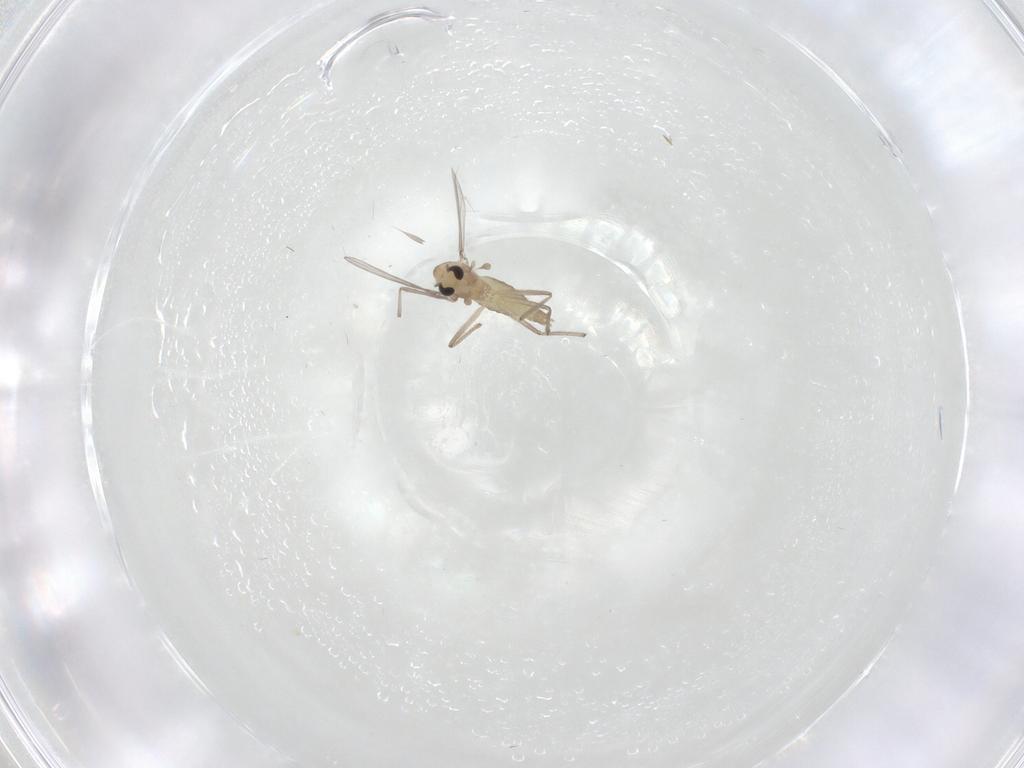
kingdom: Animalia
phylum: Arthropoda
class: Insecta
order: Diptera
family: Chironomidae
